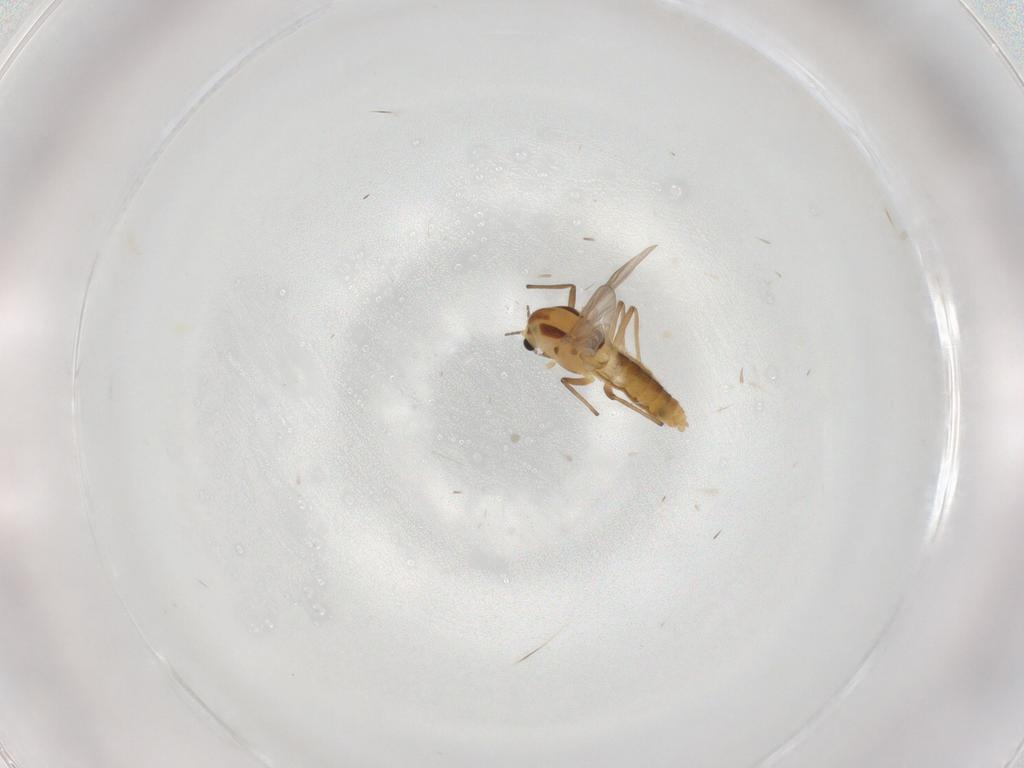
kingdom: Animalia
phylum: Arthropoda
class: Insecta
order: Diptera
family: Chironomidae
